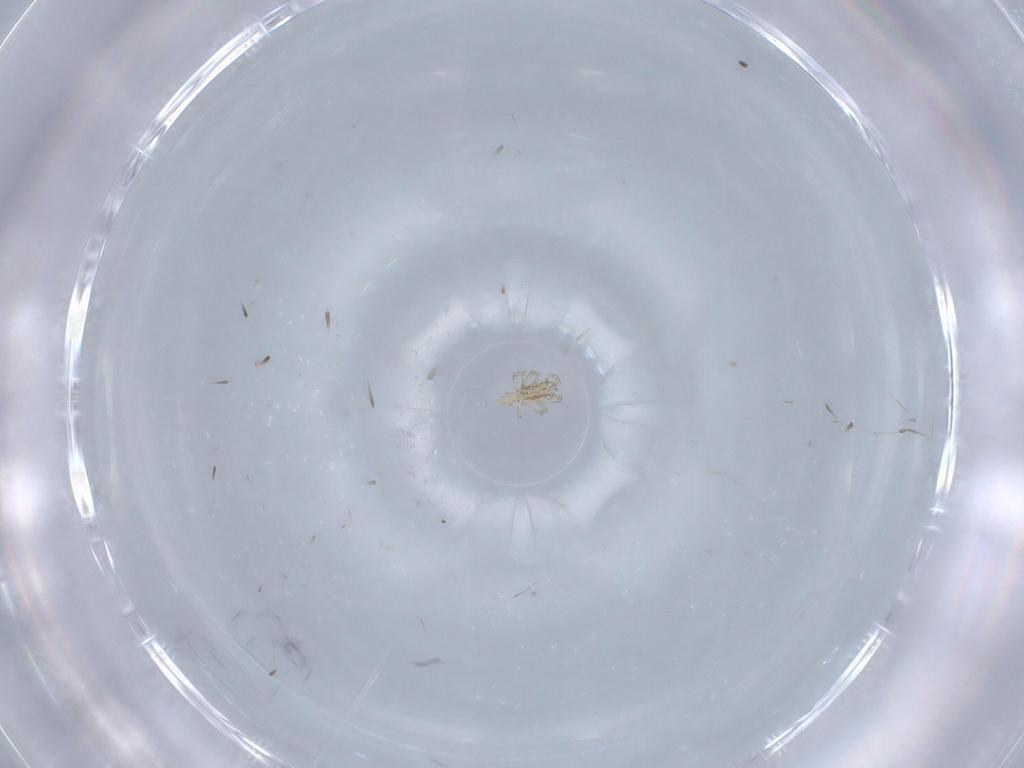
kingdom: Animalia
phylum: Arthropoda
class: Arachnida
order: Trombidiformes
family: Erythraeidae
